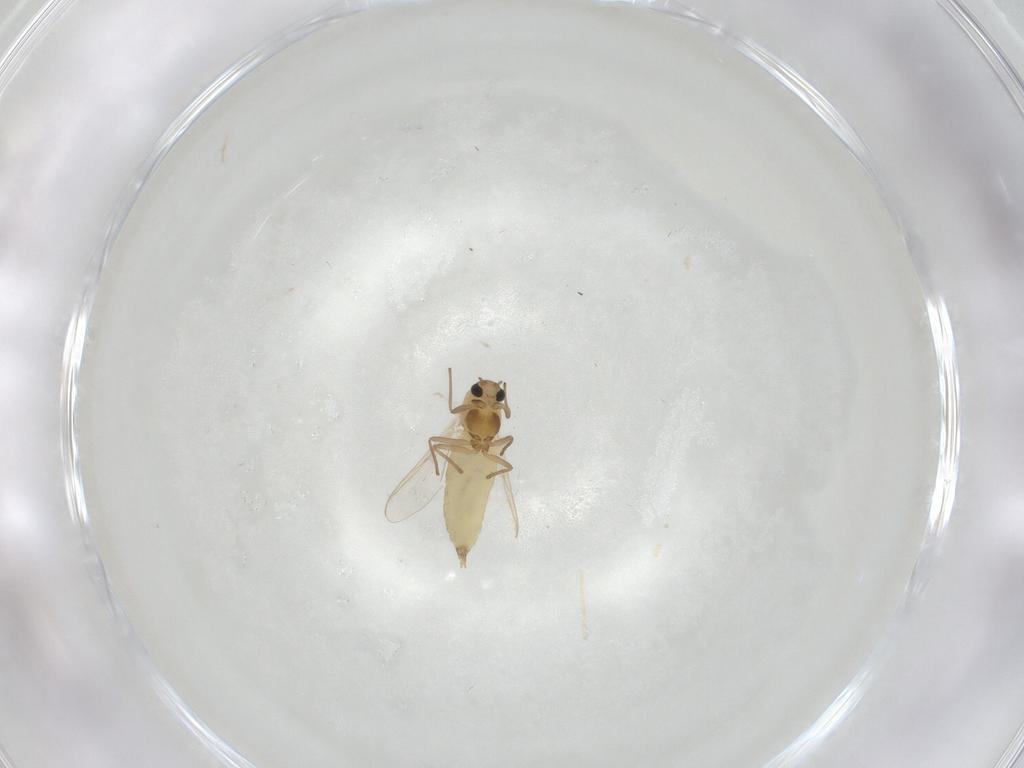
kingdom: Animalia
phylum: Arthropoda
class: Insecta
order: Diptera
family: Chironomidae
